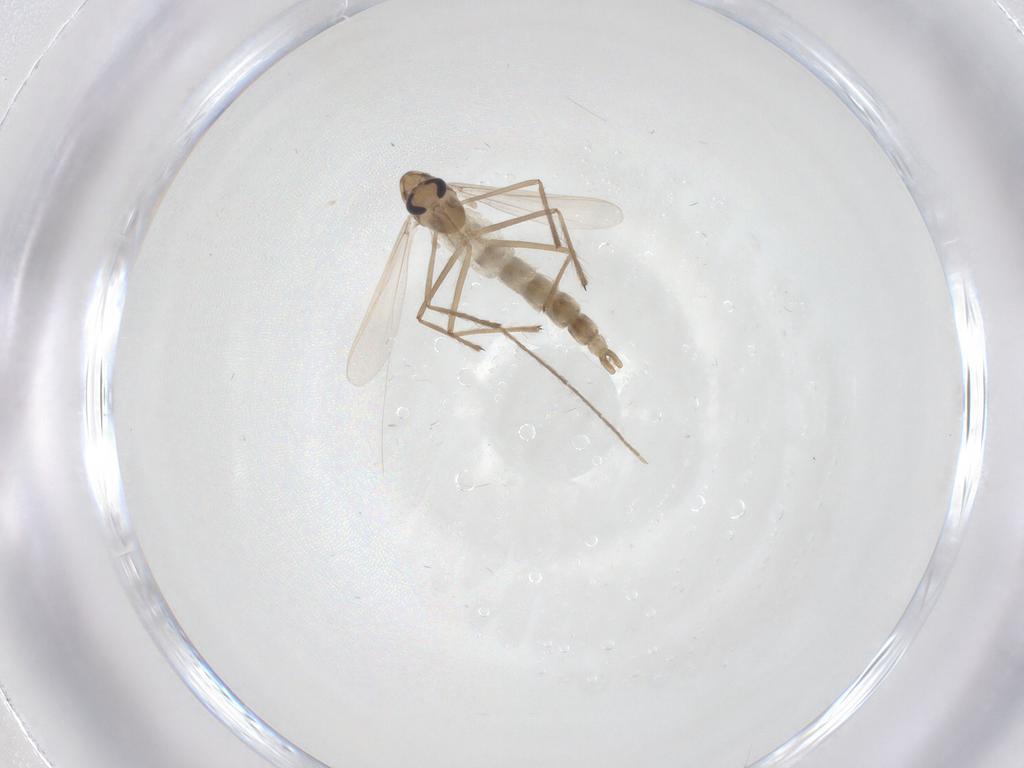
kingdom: Animalia
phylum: Arthropoda
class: Insecta
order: Diptera
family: Chironomidae
